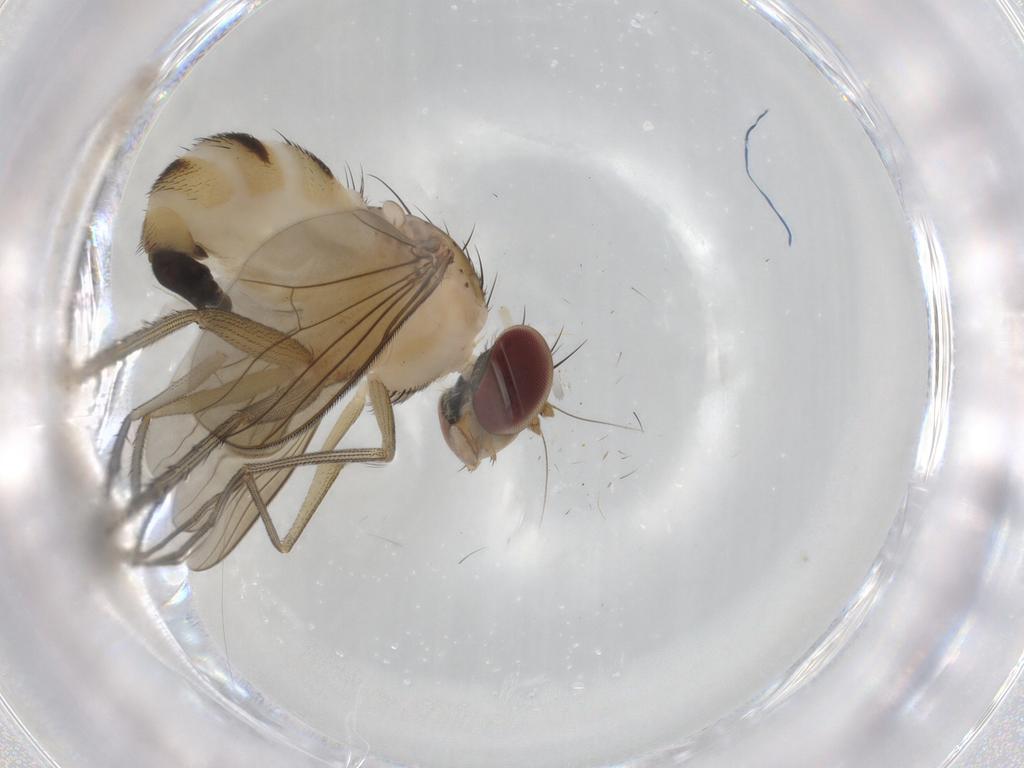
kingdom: Animalia
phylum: Arthropoda
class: Insecta
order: Diptera
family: Dolichopodidae
